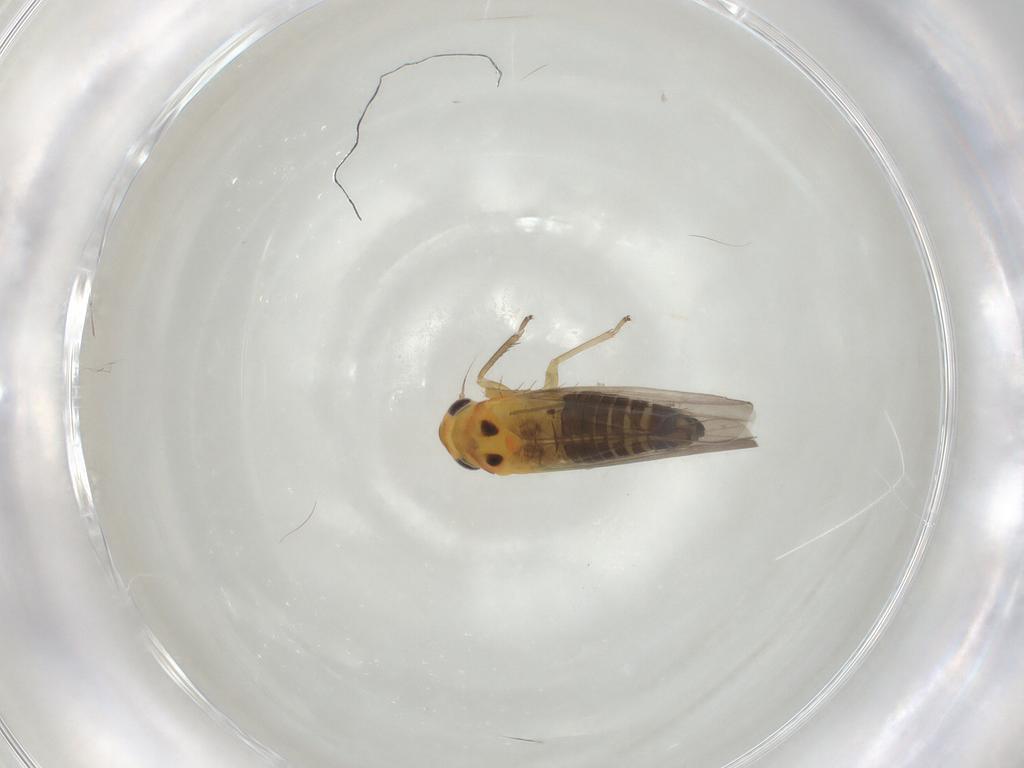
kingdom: Animalia
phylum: Arthropoda
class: Insecta
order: Hemiptera
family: Cicadellidae
